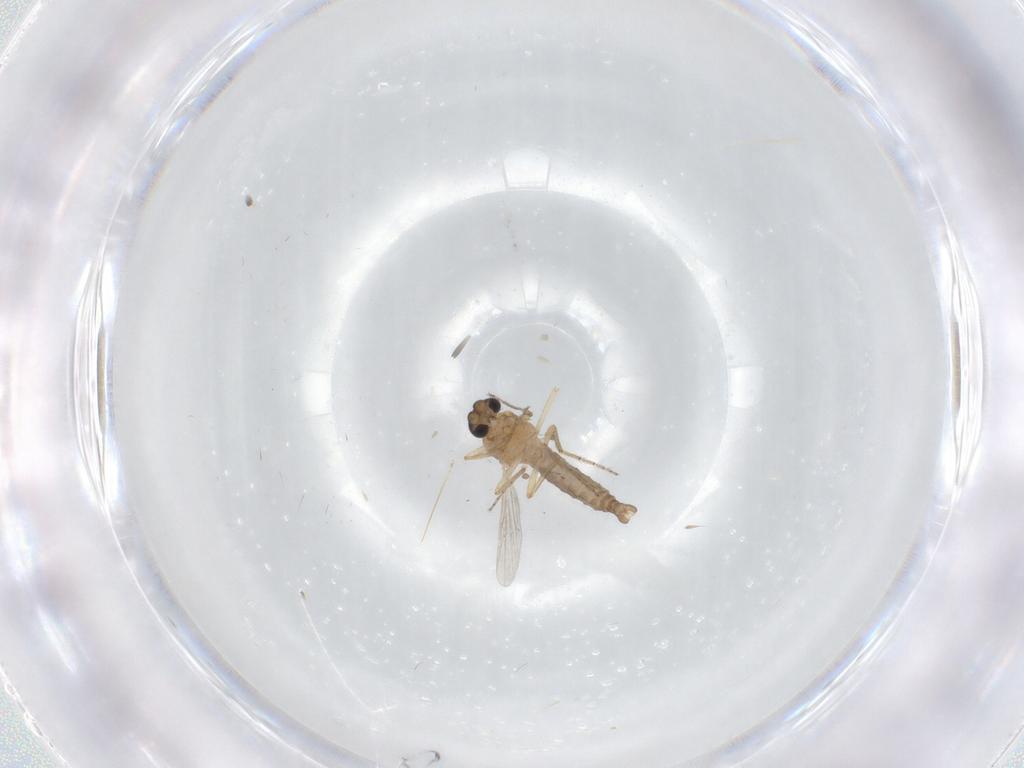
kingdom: Animalia
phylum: Arthropoda
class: Insecta
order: Diptera
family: Ceratopogonidae
